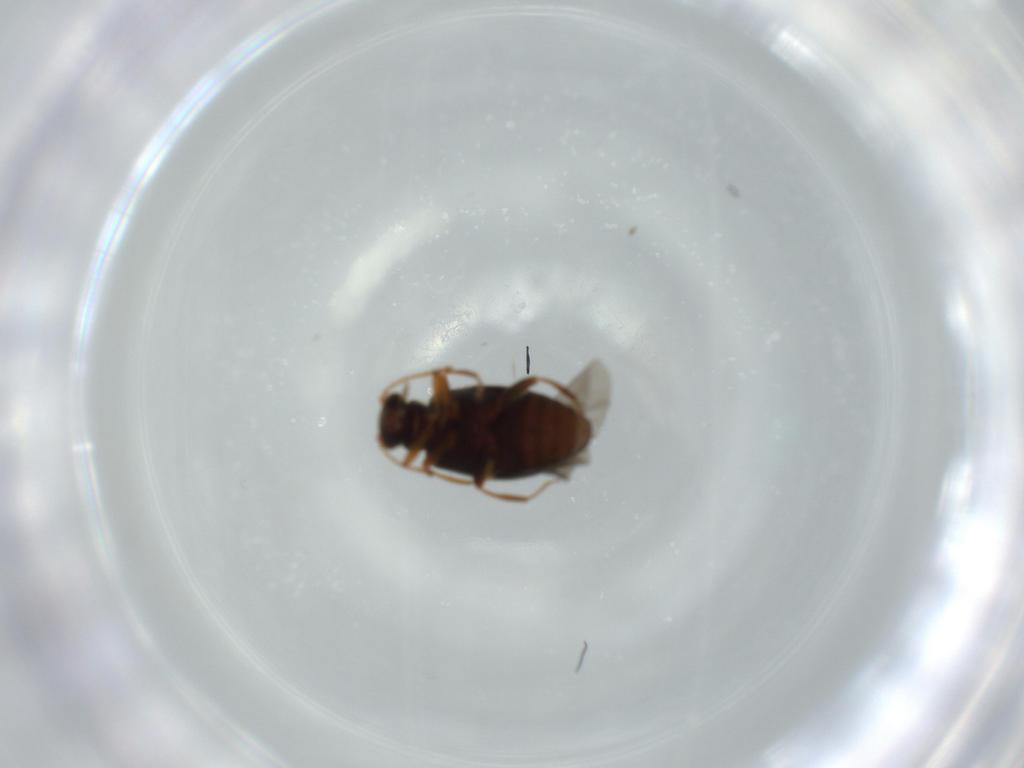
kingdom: Animalia
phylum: Arthropoda
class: Insecta
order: Coleoptera
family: Aderidae
